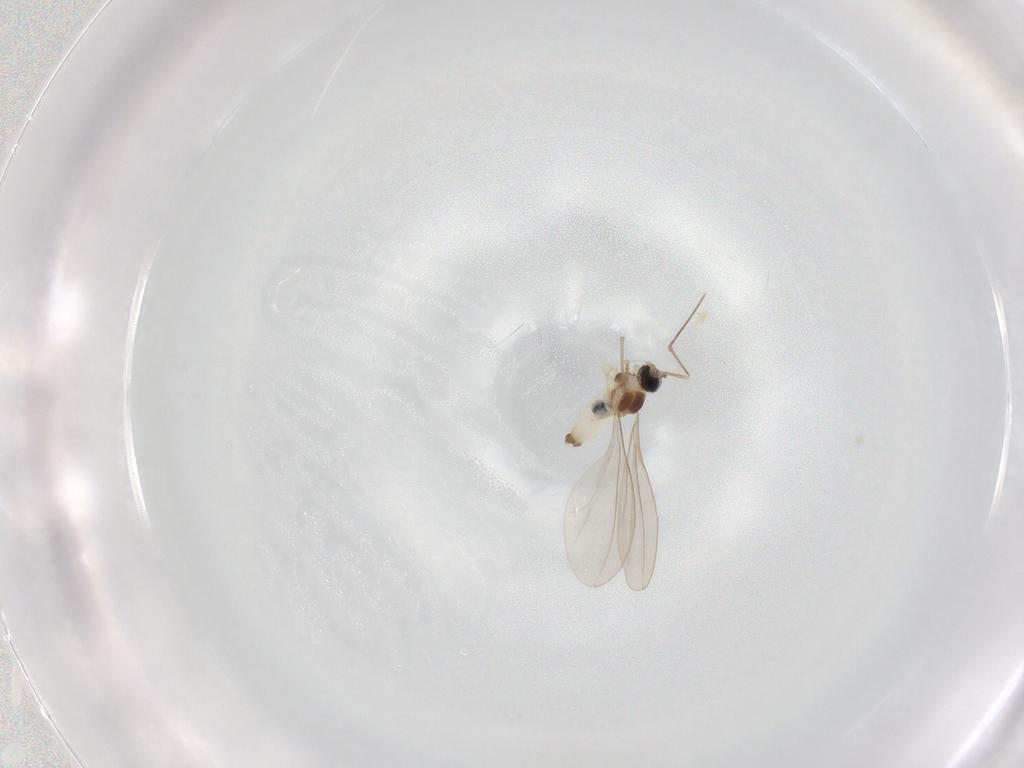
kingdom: Animalia
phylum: Arthropoda
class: Insecta
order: Diptera
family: Cecidomyiidae
